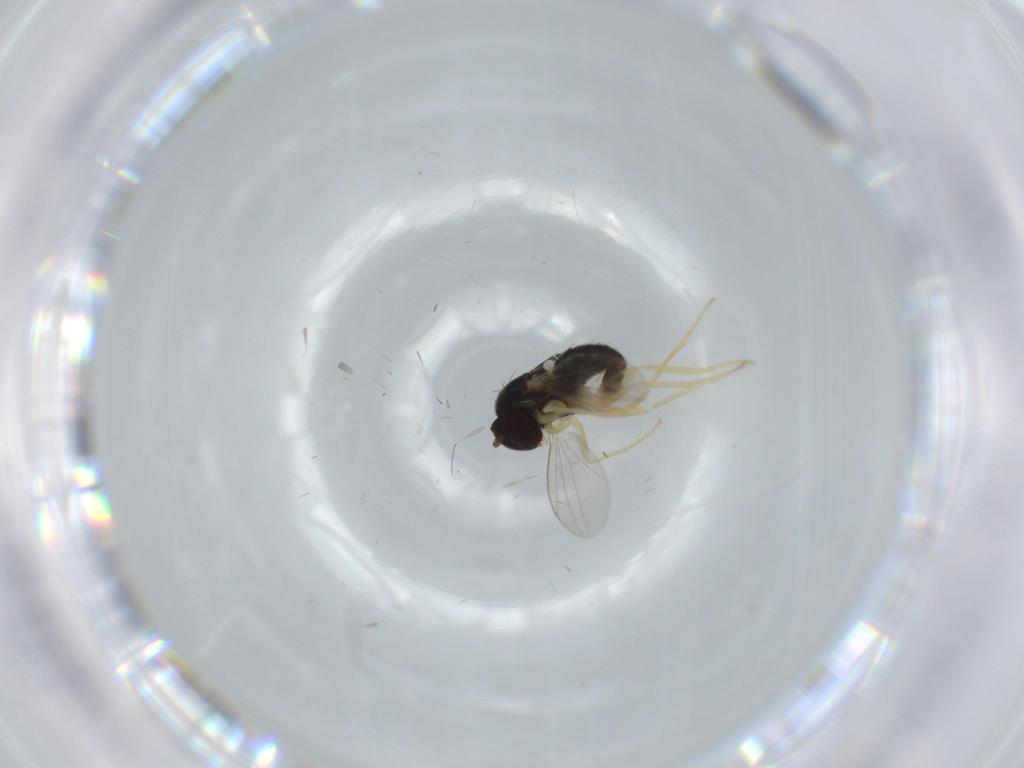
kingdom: Animalia
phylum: Arthropoda
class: Insecta
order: Diptera
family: Dolichopodidae
